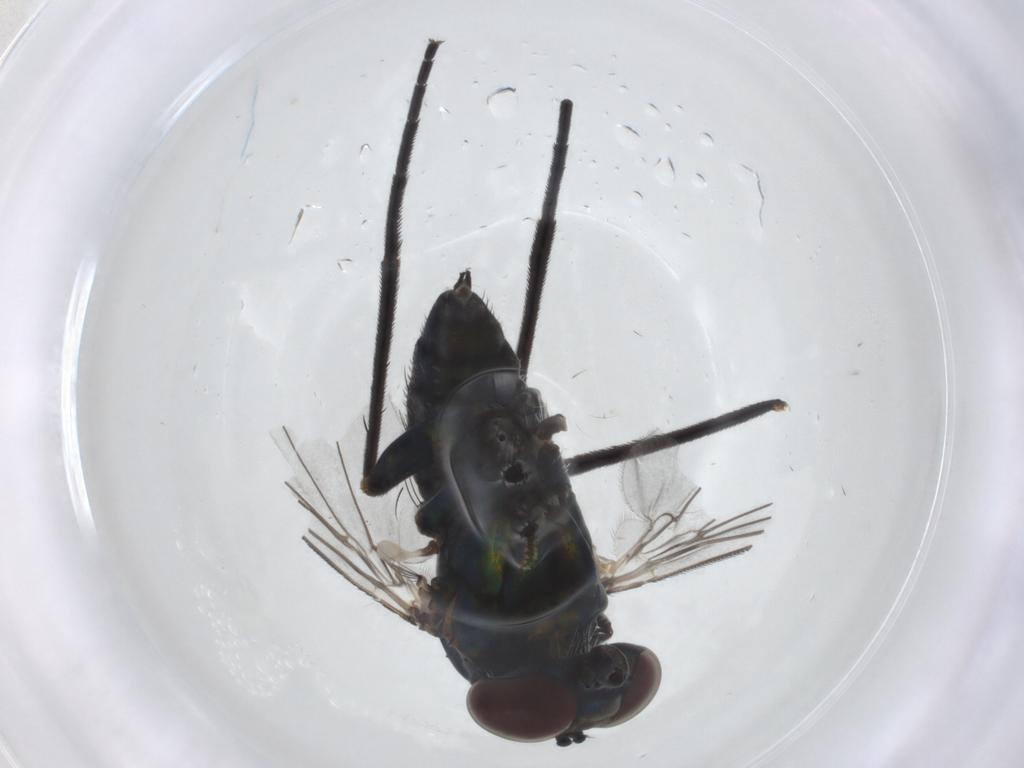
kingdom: Animalia
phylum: Arthropoda
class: Insecta
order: Diptera
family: Dolichopodidae
